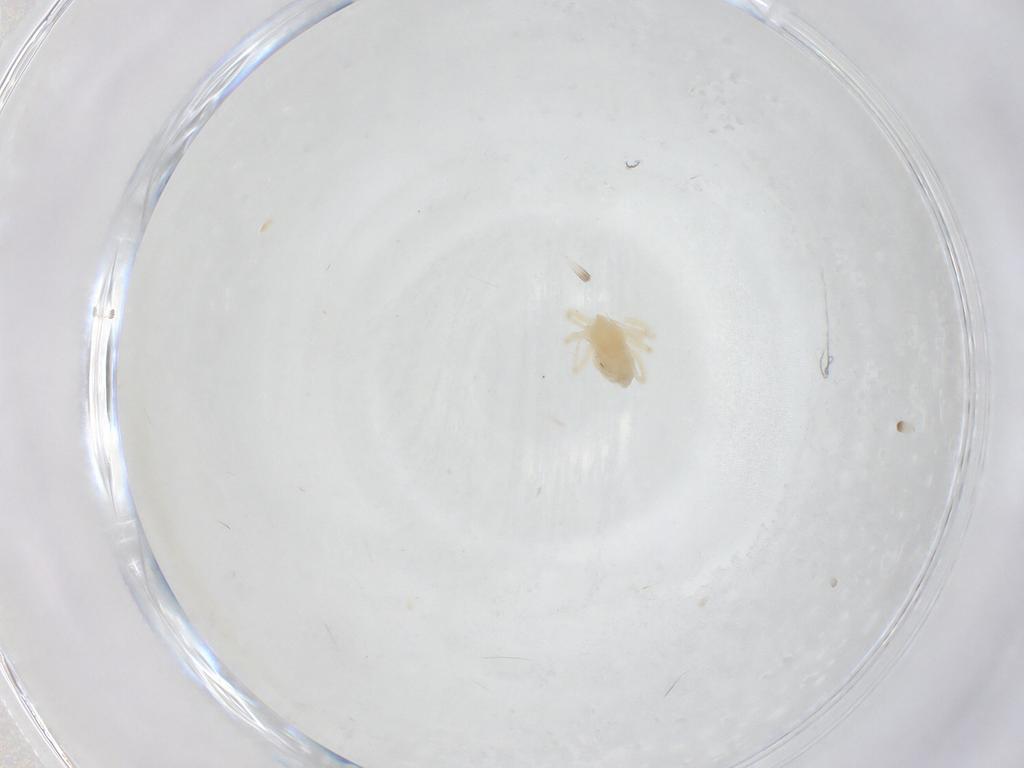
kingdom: Animalia
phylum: Arthropoda
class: Arachnida
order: Trombidiformes
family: Anystidae
